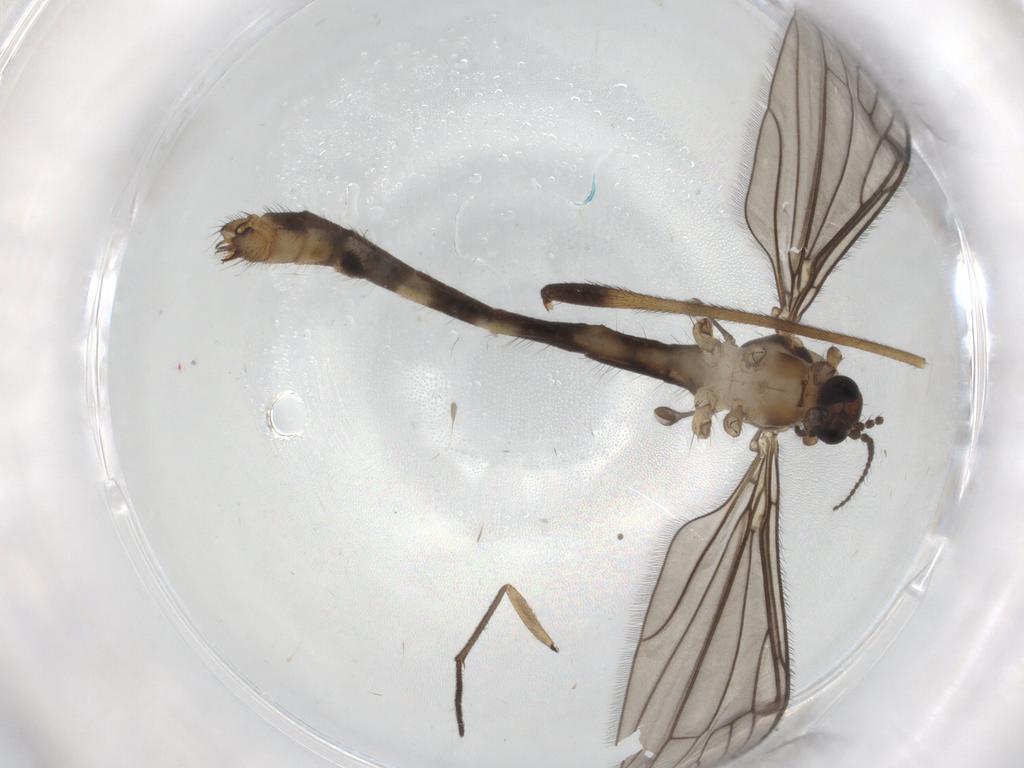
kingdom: Animalia
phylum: Arthropoda
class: Insecta
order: Diptera
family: Limoniidae
